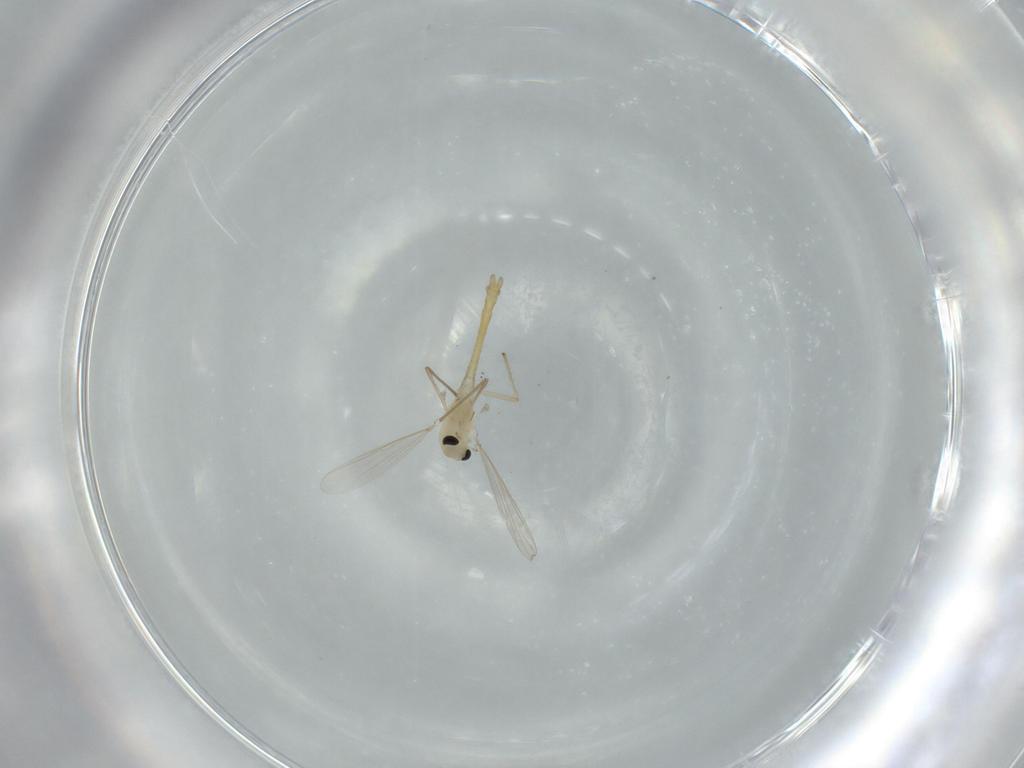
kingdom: Animalia
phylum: Arthropoda
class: Insecta
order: Diptera
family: Chironomidae
